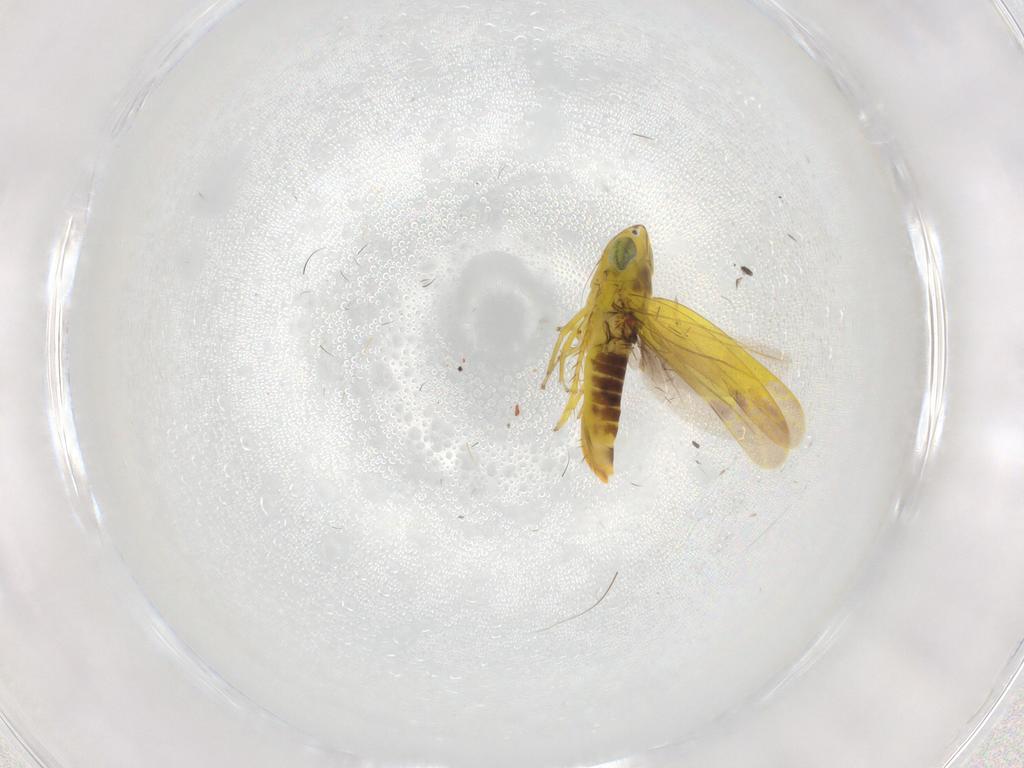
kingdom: Animalia
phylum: Arthropoda
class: Insecta
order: Hemiptera
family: Cicadellidae
